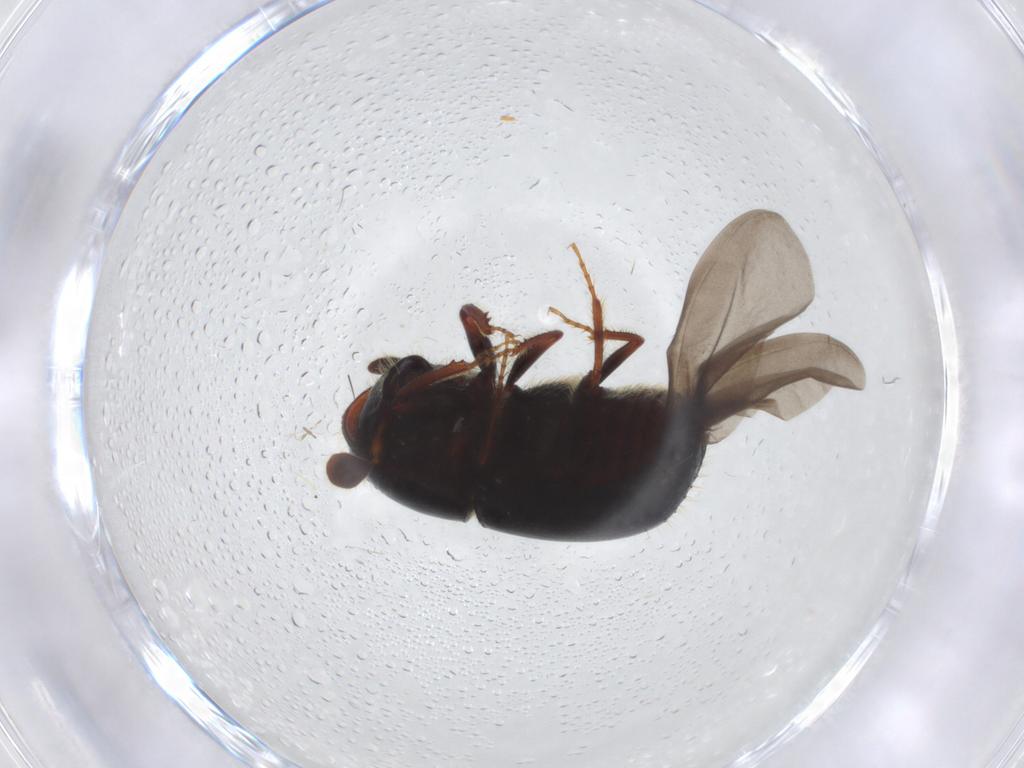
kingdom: Animalia
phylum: Arthropoda
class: Insecta
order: Coleoptera
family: Curculionidae
